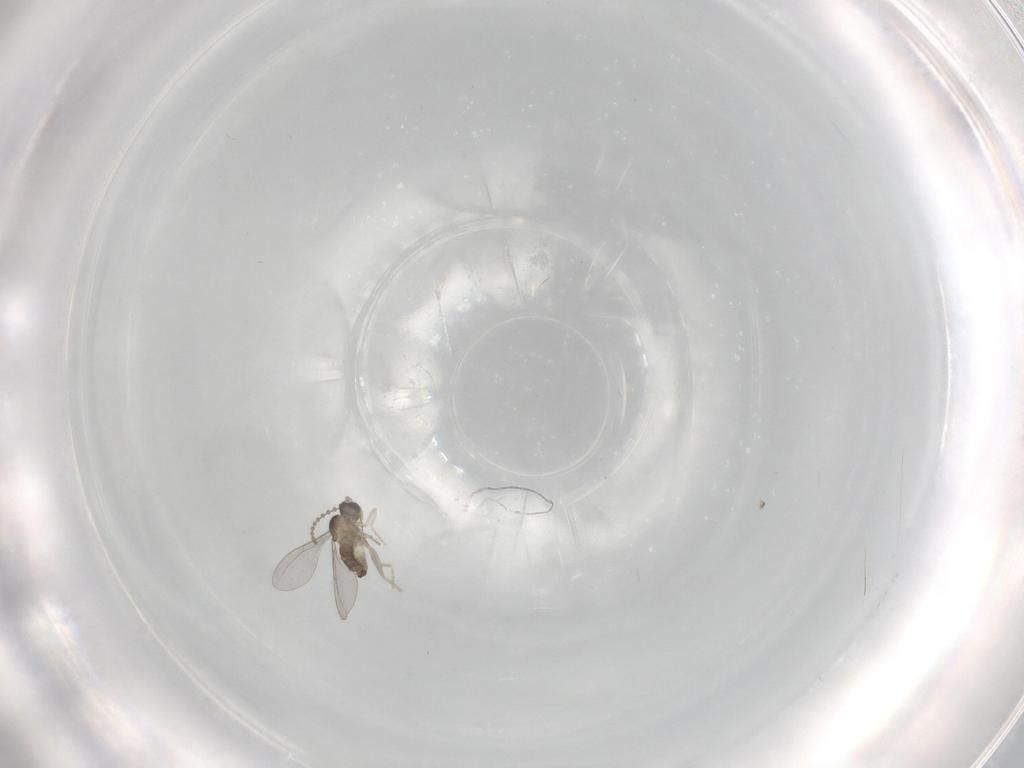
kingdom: Animalia
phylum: Arthropoda
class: Insecta
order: Diptera
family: Cecidomyiidae
